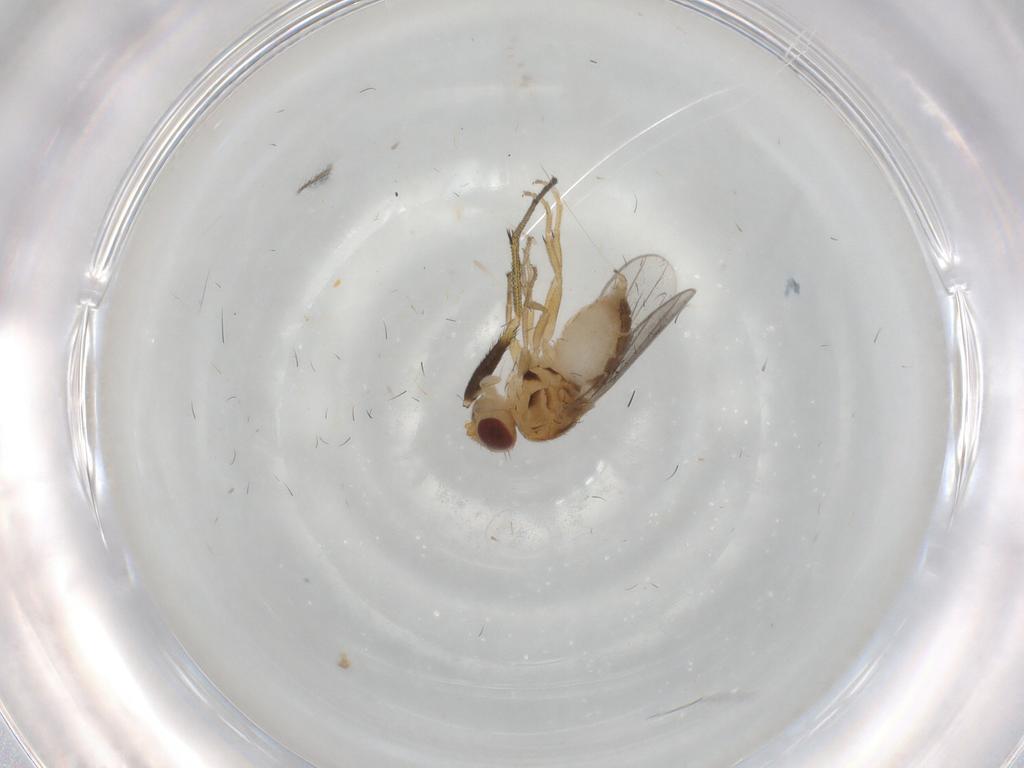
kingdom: Animalia
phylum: Arthropoda
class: Insecta
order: Diptera
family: Chloropidae
